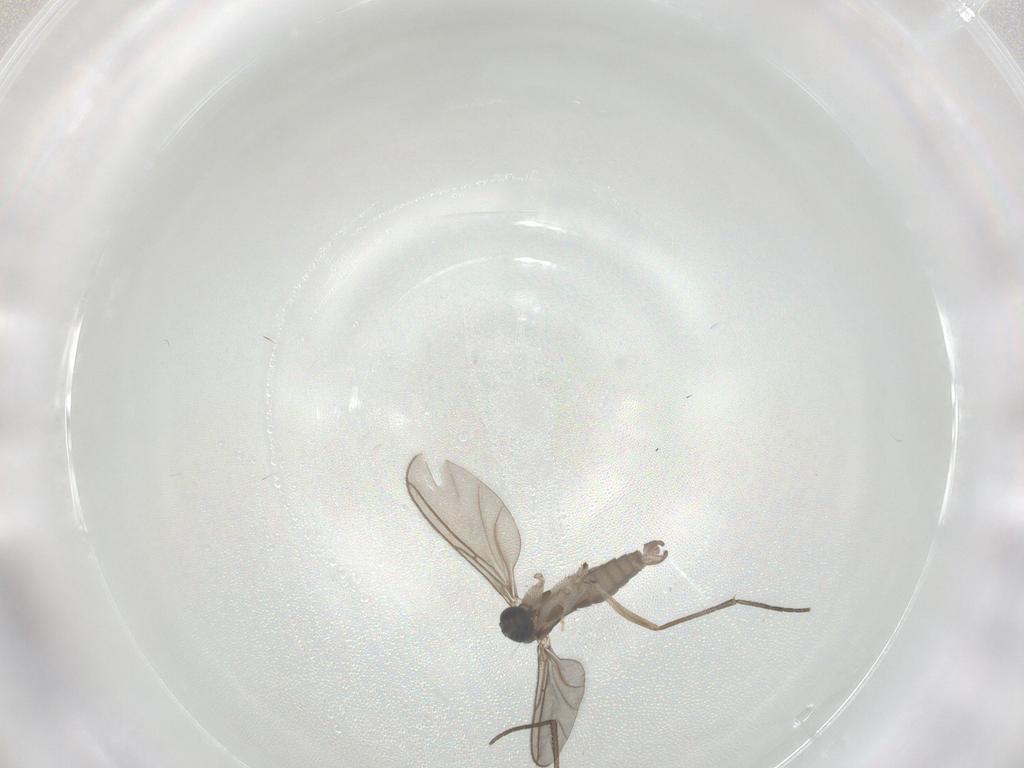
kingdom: Animalia
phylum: Arthropoda
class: Insecta
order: Diptera
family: Sciaridae
